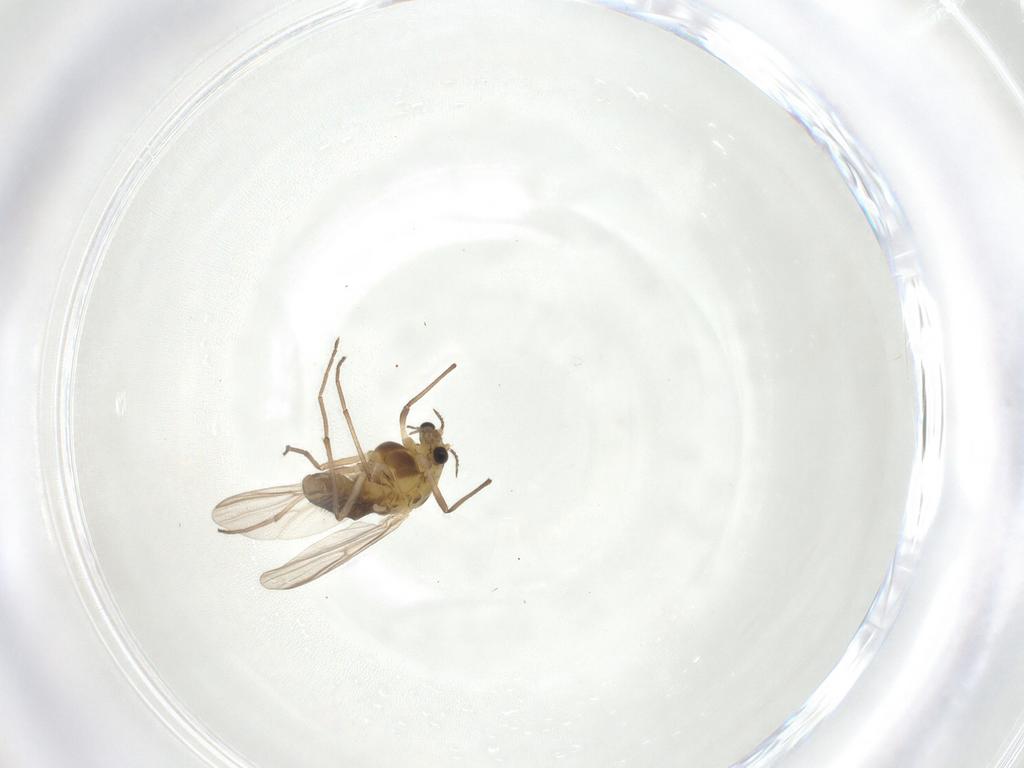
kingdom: Animalia
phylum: Arthropoda
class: Insecta
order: Diptera
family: Chironomidae
